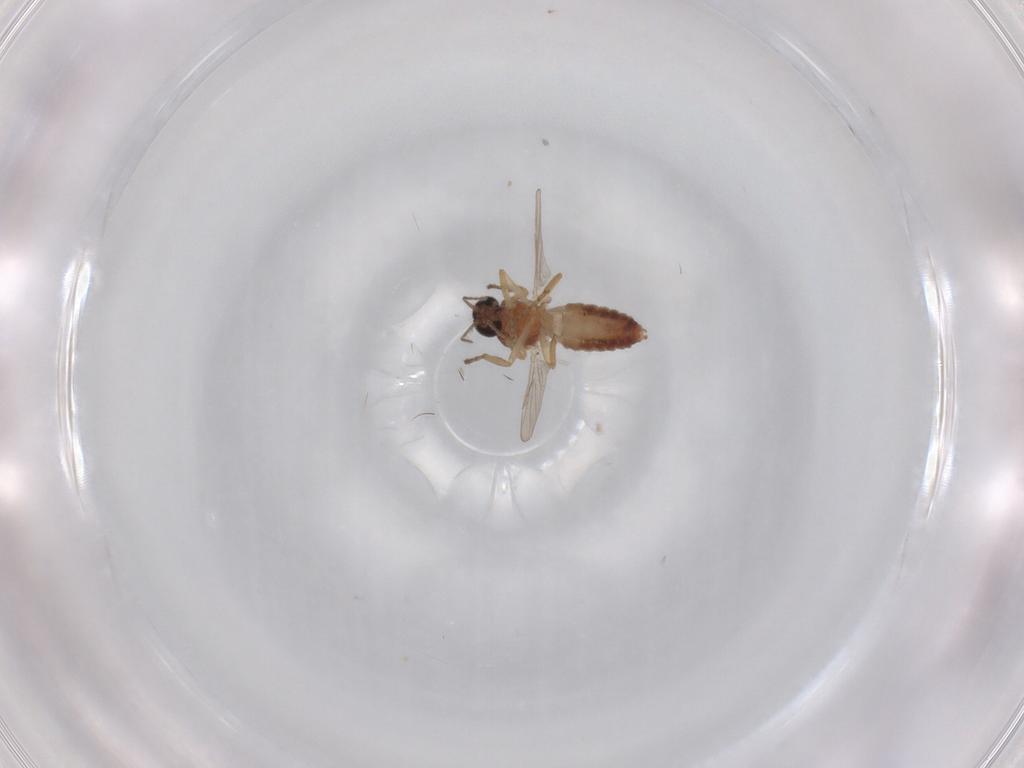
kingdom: Animalia
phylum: Arthropoda
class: Insecta
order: Diptera
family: Ceratopogonidae
